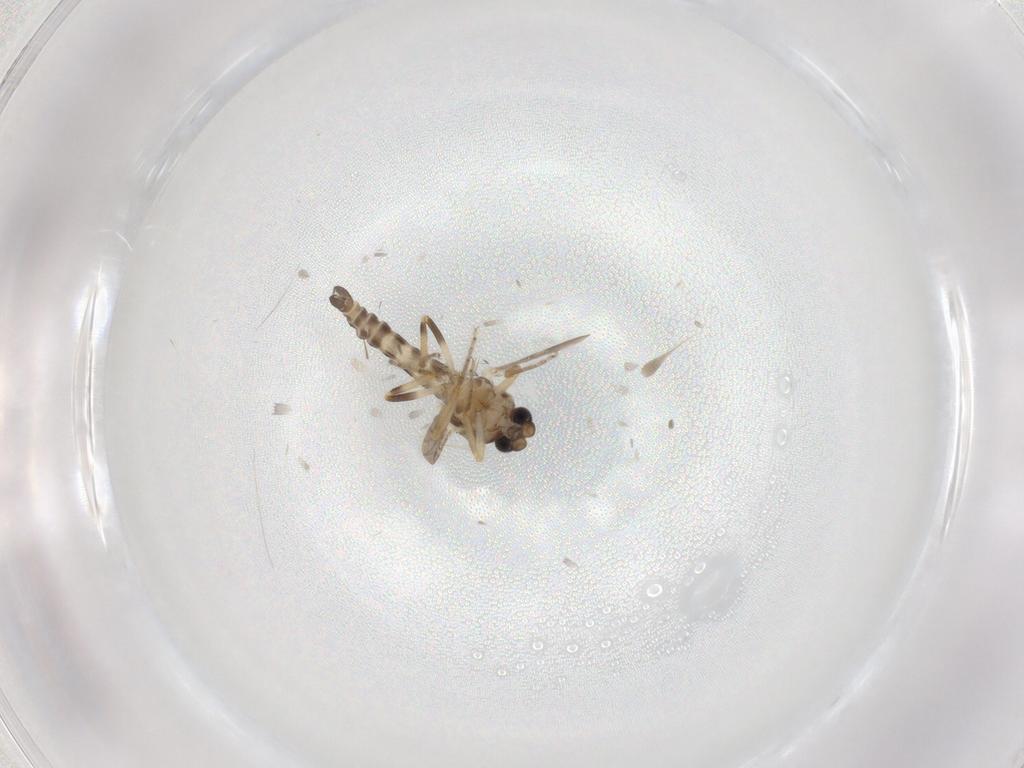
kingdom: Animalia
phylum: Arthropoda
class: Insecta
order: Diptera
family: Ceratopogonidae
